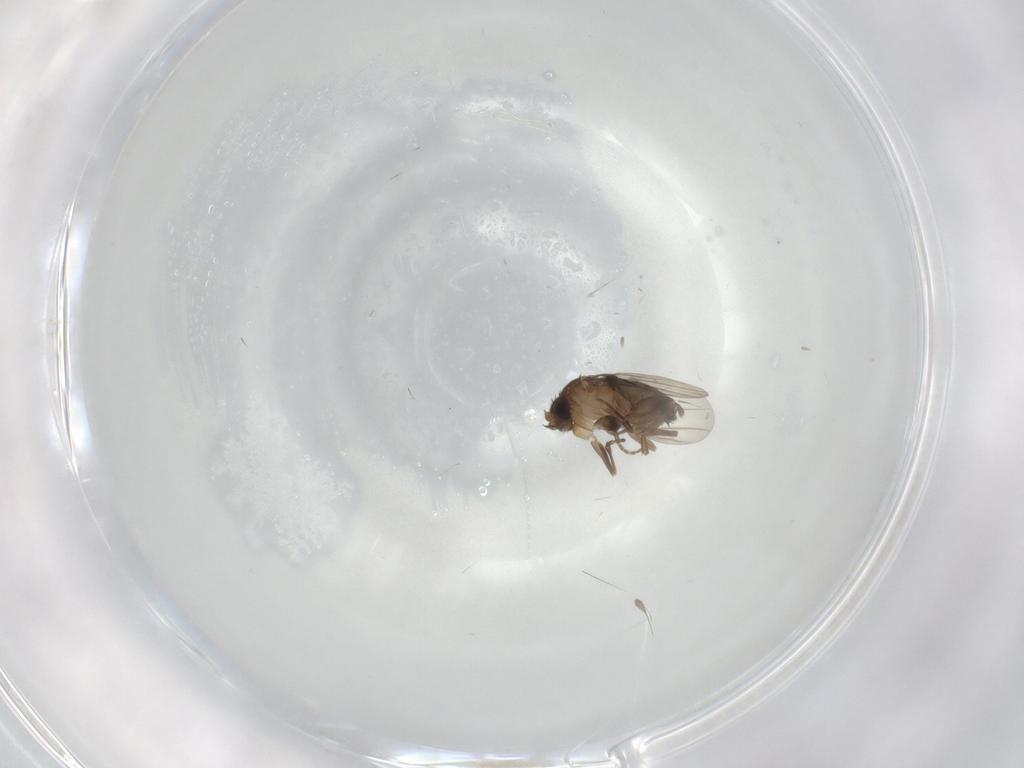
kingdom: Animalia
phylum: Arthropoda
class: Insecta
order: Diptera
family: Phoridae
